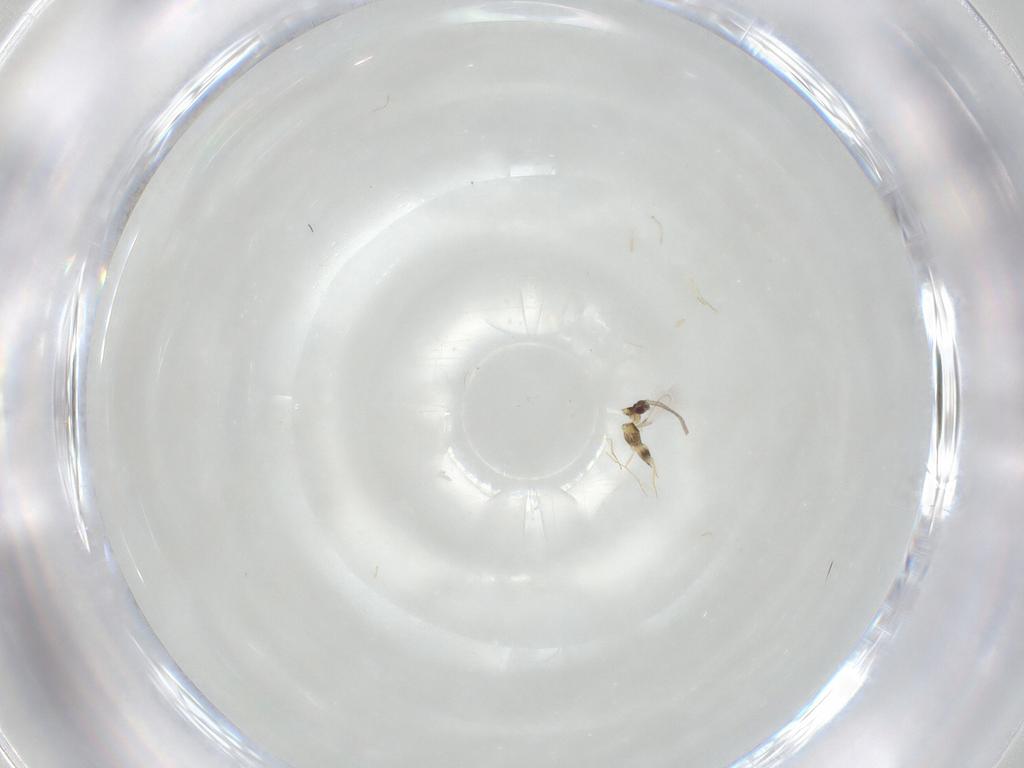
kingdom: Animalia
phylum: Arthropoda
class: Insecta
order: Hymenoptera
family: Mymaridae
